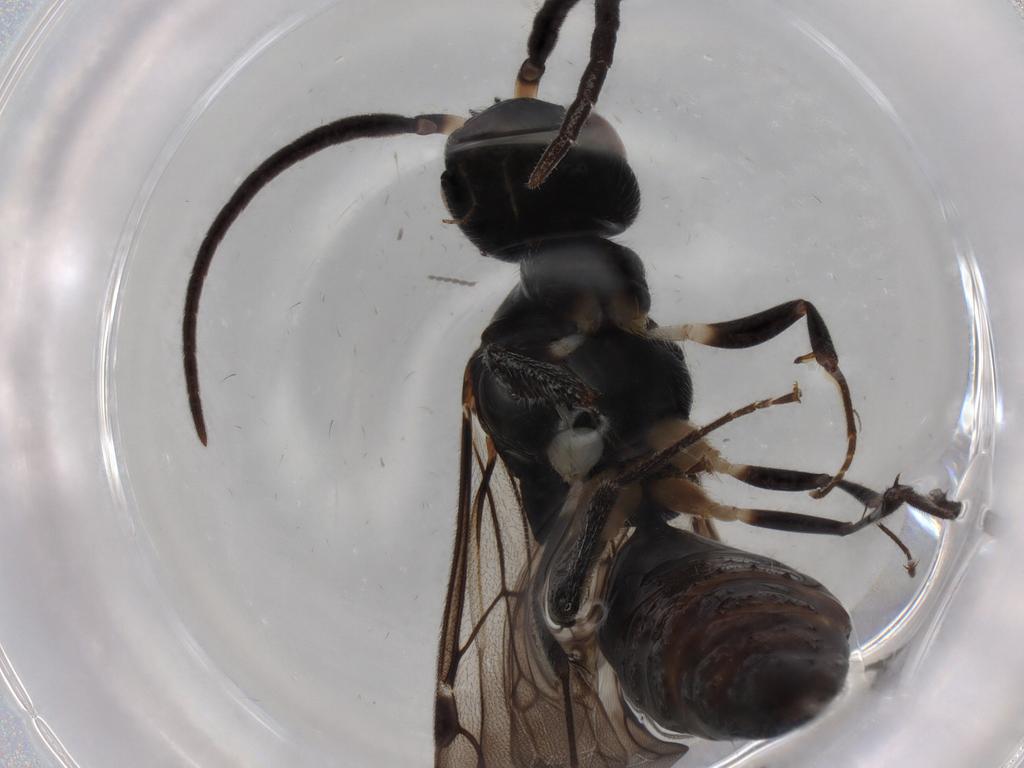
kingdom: Animalia
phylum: Arthropoda
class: Insecta
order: Hymenoptera
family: Bethylidae
